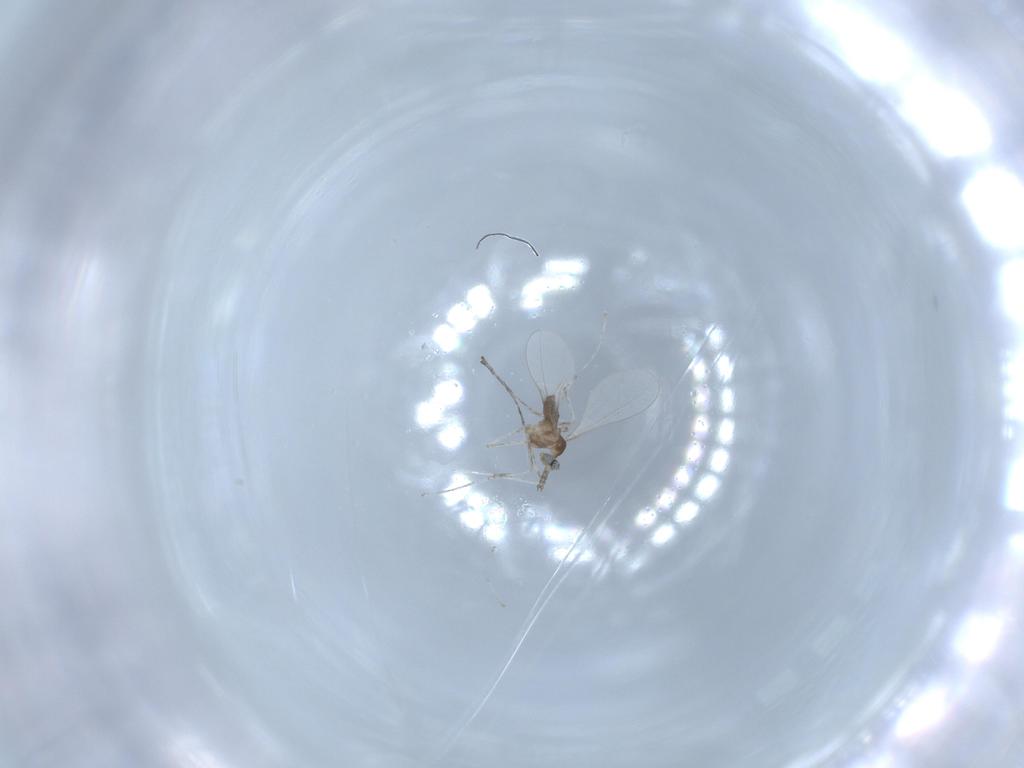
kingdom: Animalia
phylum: Arthropoda
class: Insecta
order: Diptera
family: Cecidomyiidae
